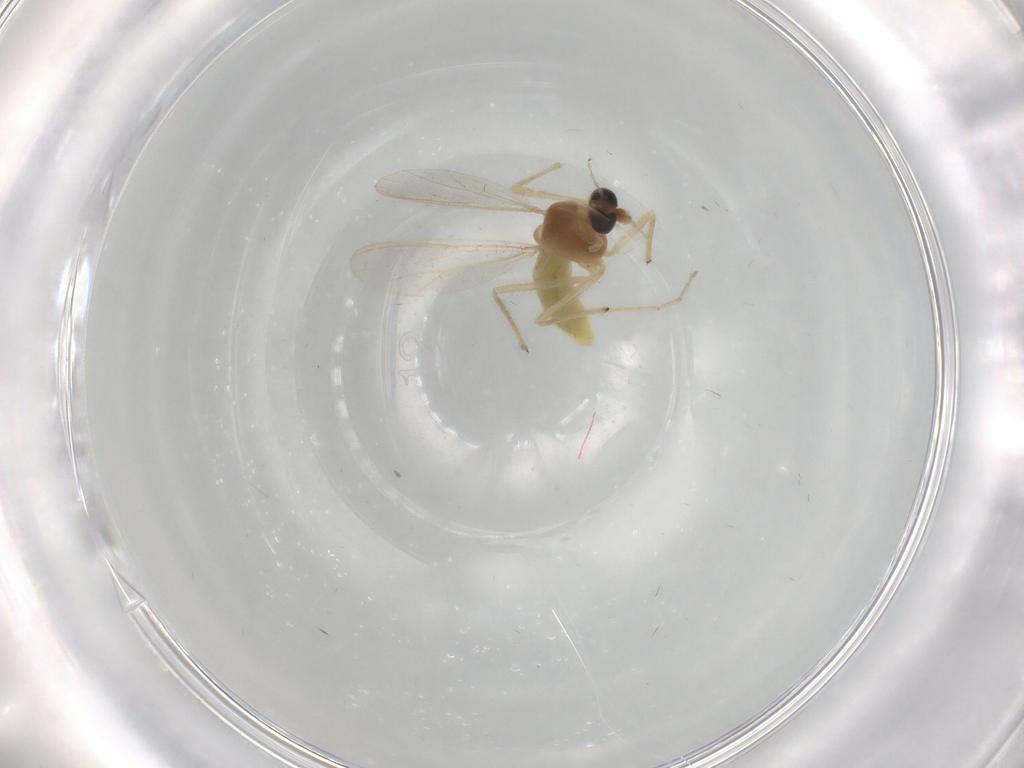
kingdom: Animalia
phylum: Arthropoda
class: Insecta
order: Diptera
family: Chironomidae
